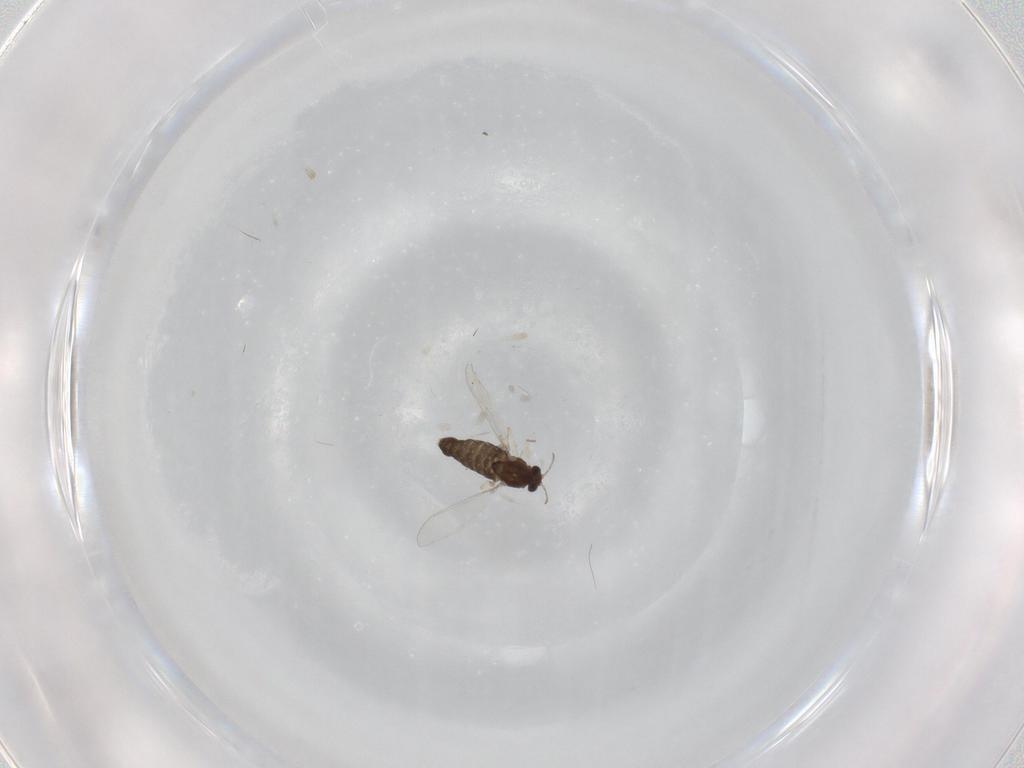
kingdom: Animalia
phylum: Arthropoda
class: Insecta
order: Diptera
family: Chironomidae
